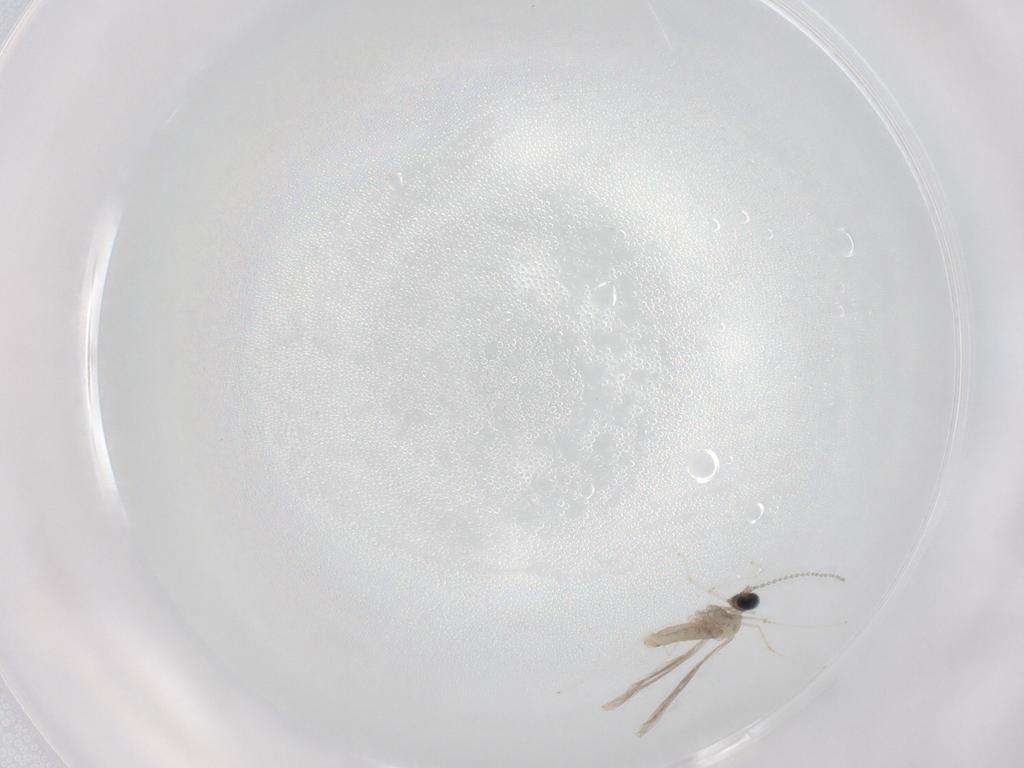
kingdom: Animalia
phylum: Arthropoda
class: Insecta
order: Diptera
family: Cecidomyiidae
